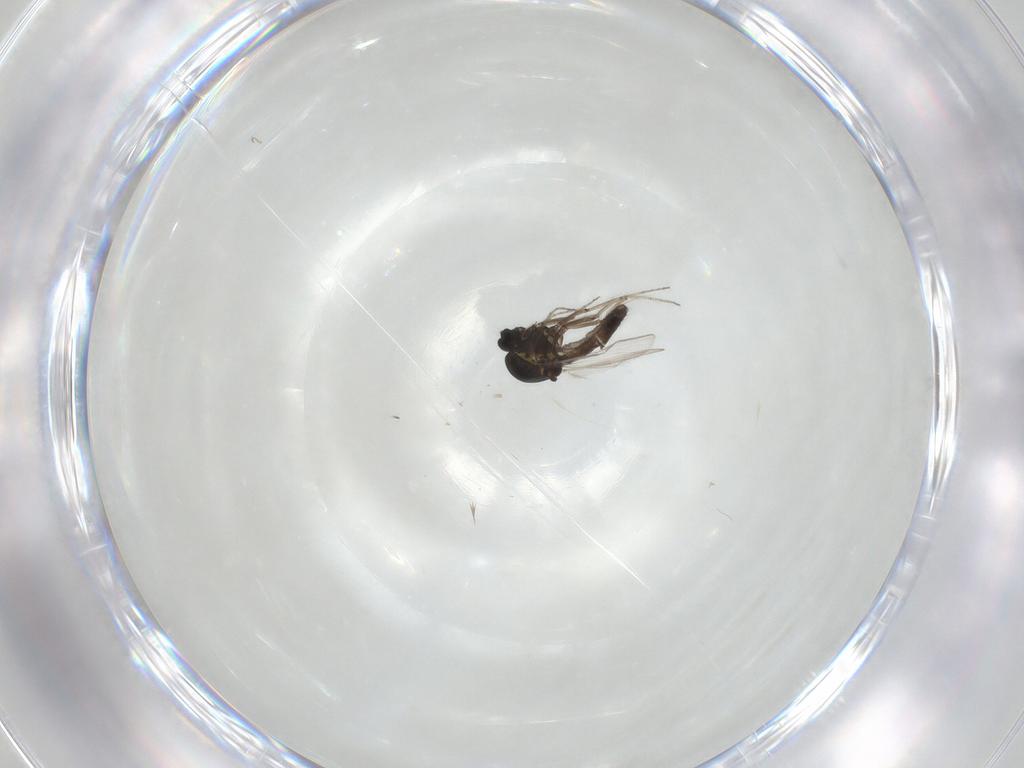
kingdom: Animalia
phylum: Arthropoda
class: Insecta
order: Diptera
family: Ceratopogonidae
